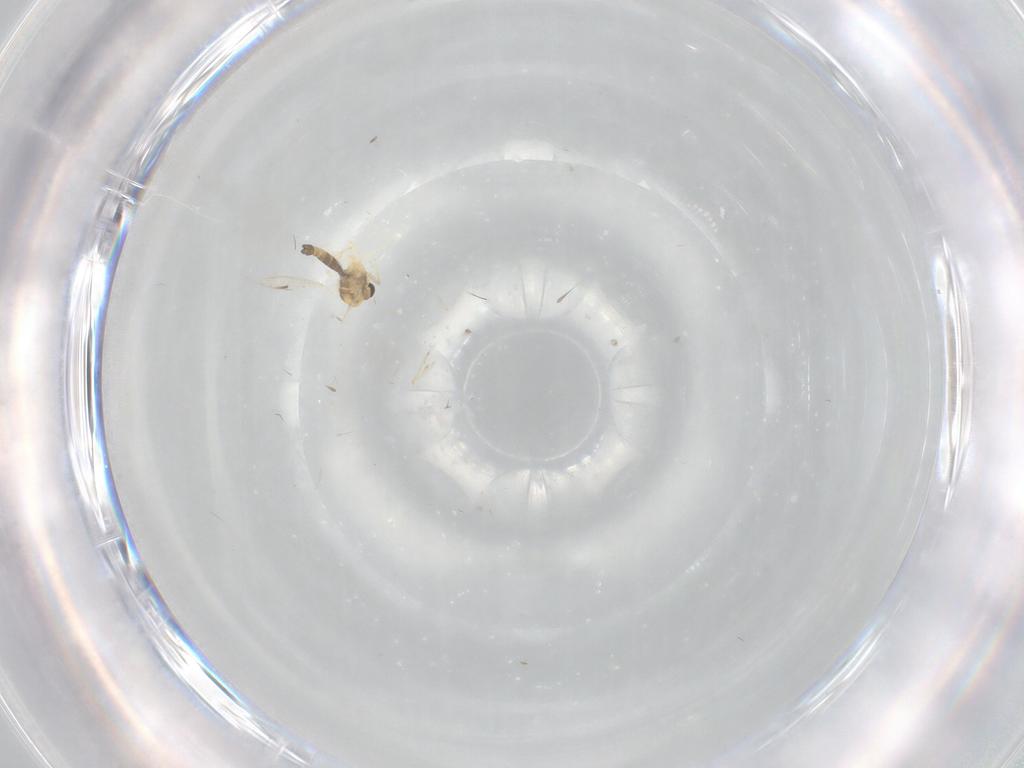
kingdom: Animalia
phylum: Arthropoda
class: Insecta
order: Diptera
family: Chironomidae
